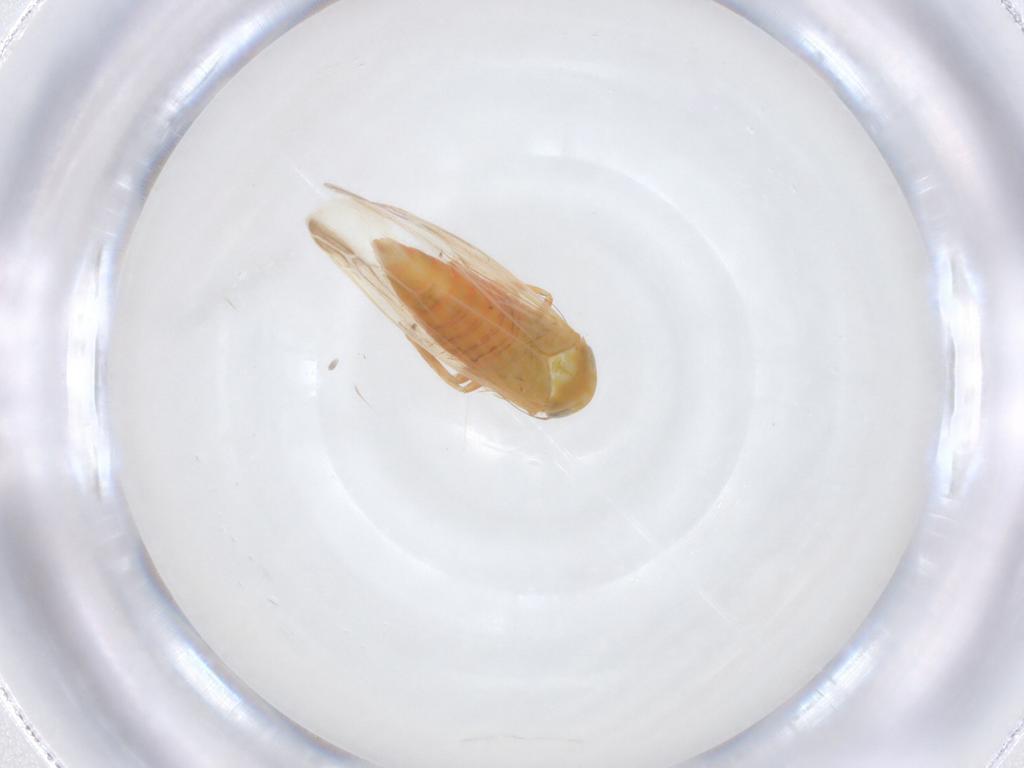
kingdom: Animalia
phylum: Arthropoda
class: Insecta
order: Hemiptera
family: Cicadellidae
